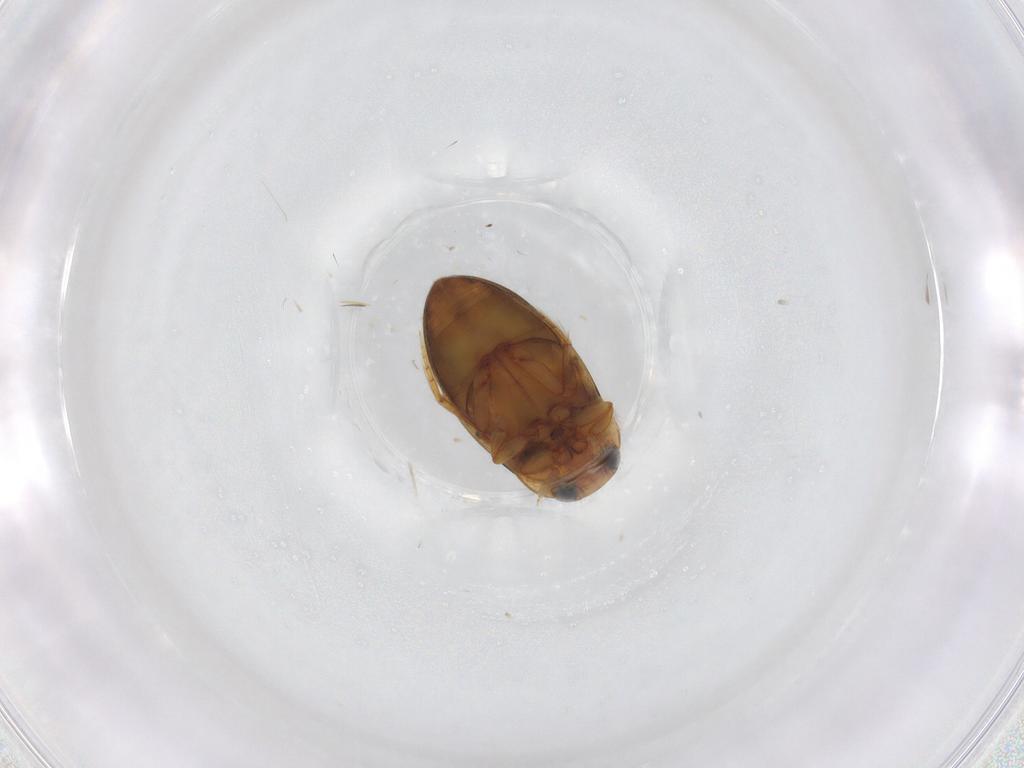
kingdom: Animalia
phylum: Arthropoda
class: Insecta
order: Coleoptera
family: Dytiscidae
